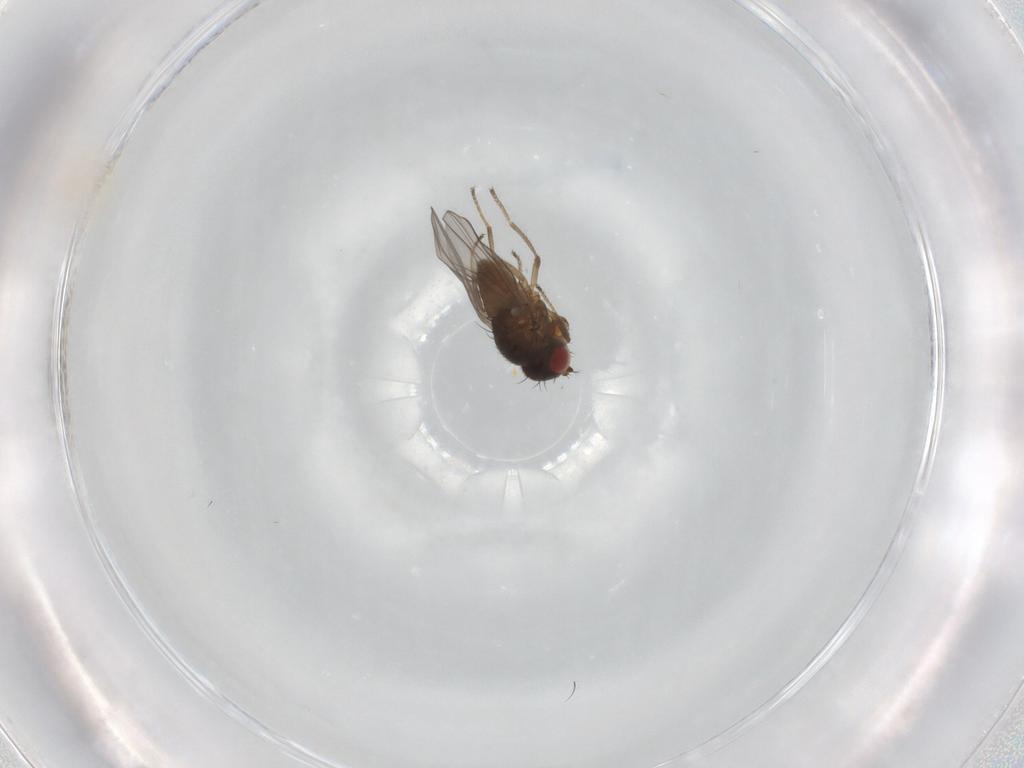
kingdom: Animalia
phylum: Arthropoda
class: Insecta
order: Diptera
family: Ephydridae
